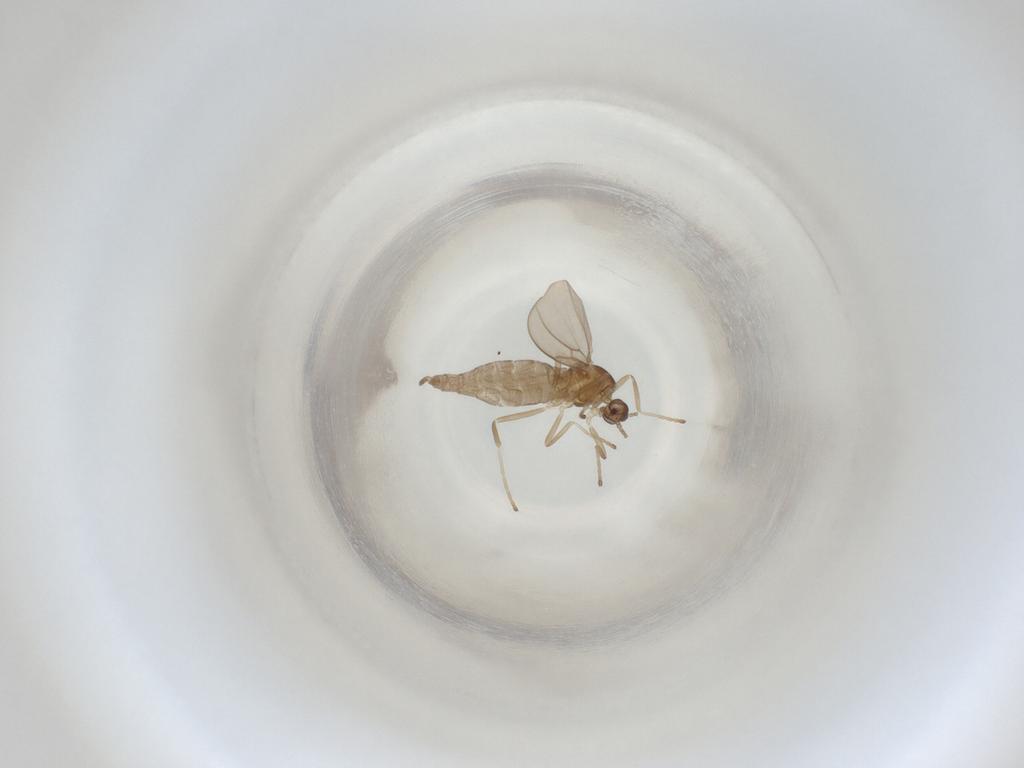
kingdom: Animalia
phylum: Arthropoda
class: Insecta
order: Diptera
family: Cecidomyiidae
